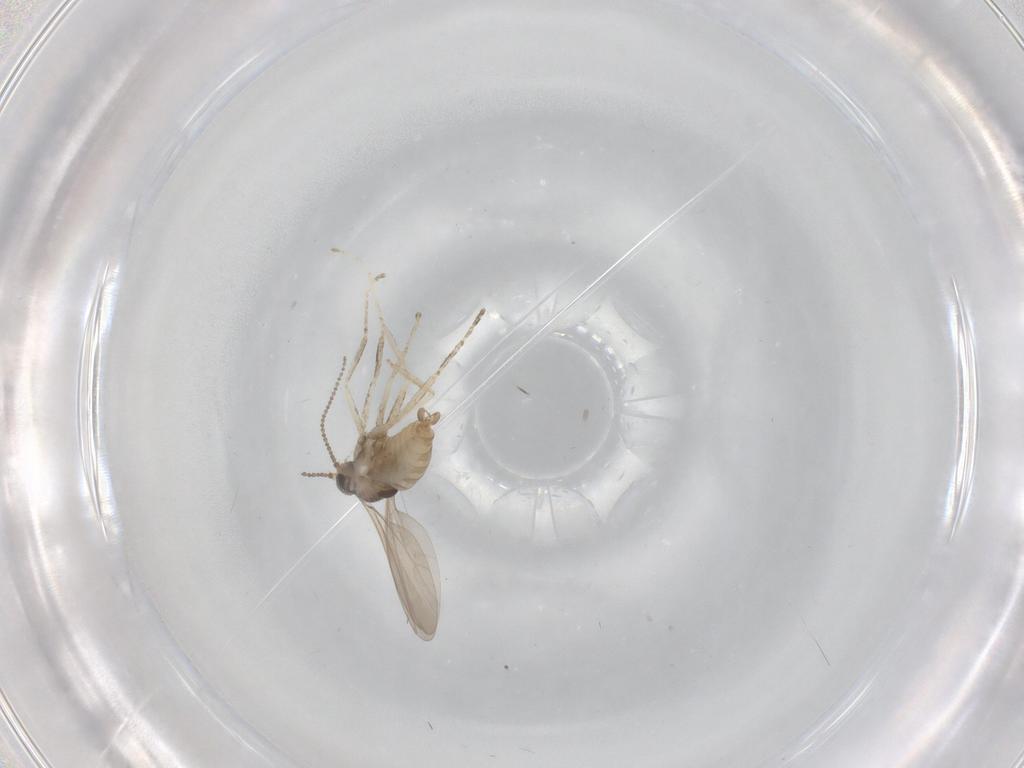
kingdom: Animalia
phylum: Arthropoda
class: Insecta
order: Diptera
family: Cecidomyiidae
